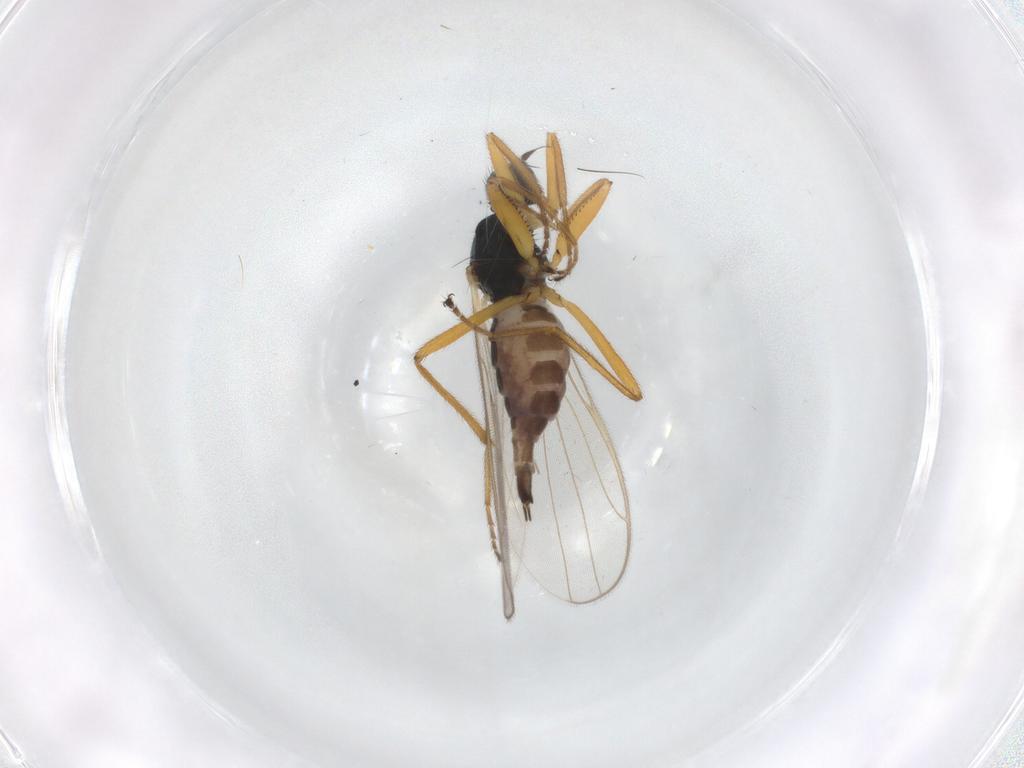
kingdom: Animalia
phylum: Arthropoda
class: Insecta
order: Diptera
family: Hybotidae
